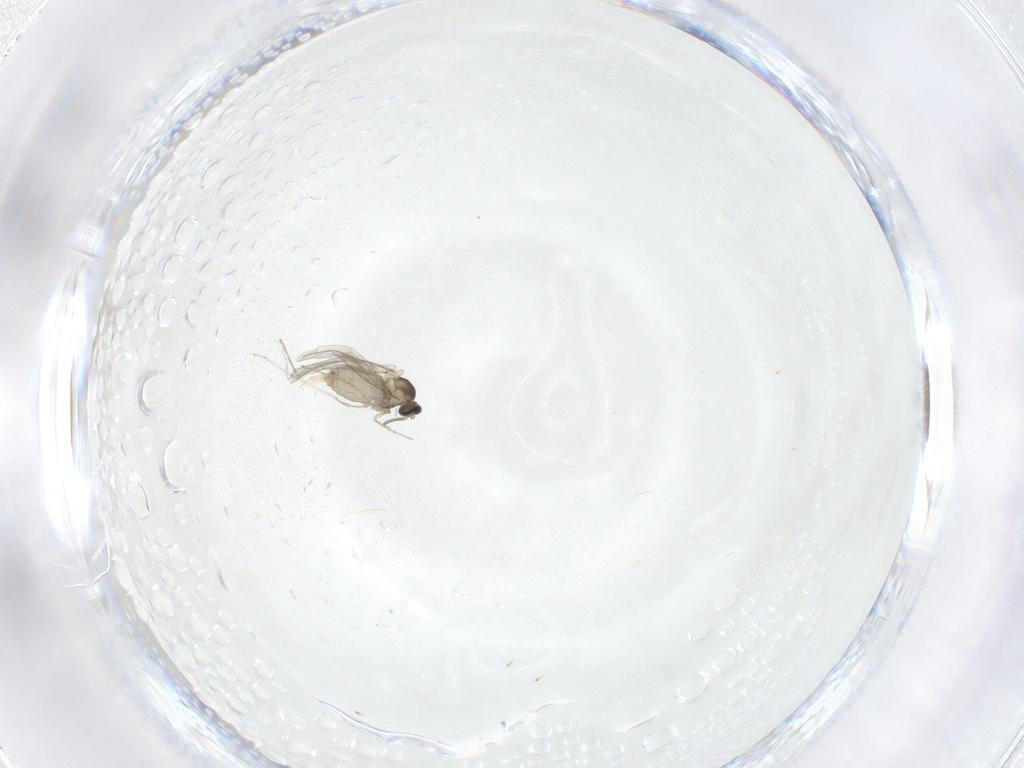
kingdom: Animalia
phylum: Arthropoda
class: Insecta
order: Diptera
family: Cecidomyiidae
